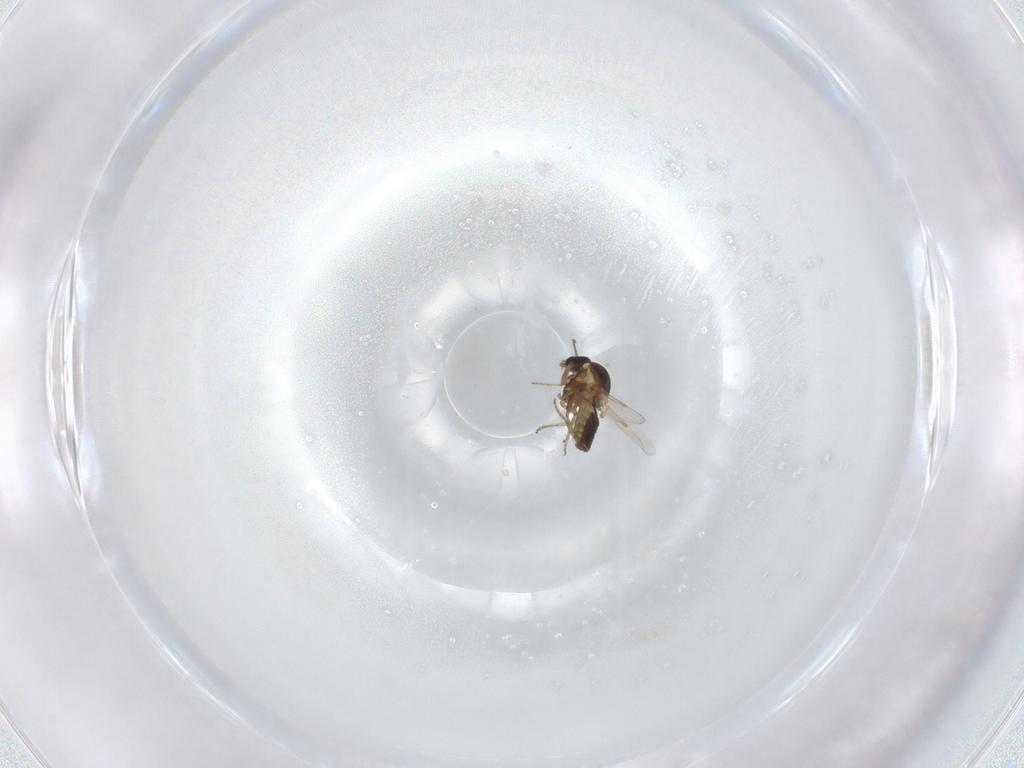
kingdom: Animalia
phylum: Arthropoda
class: Insecta
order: Diptera
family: Ceratopogonidae
